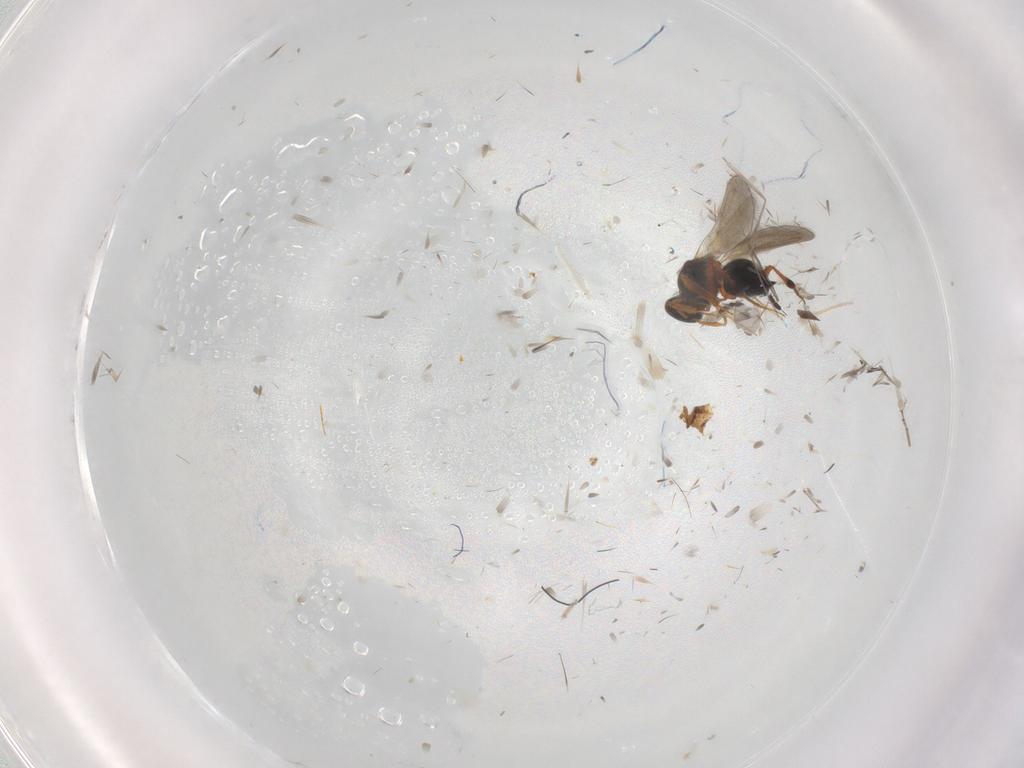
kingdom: Animalia
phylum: Arthropoda
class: Insecta
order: Hymenoptera
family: Platygastridae
